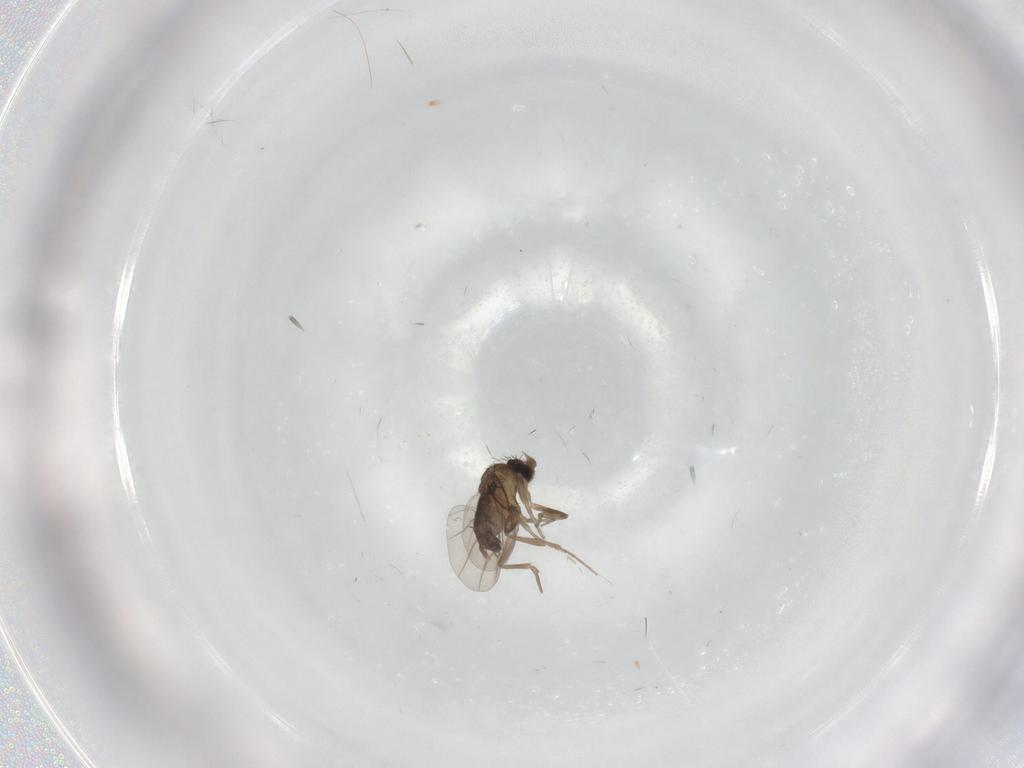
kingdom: Animalia
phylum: Arthropoda
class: Insecta
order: Diptera
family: Phoridae
